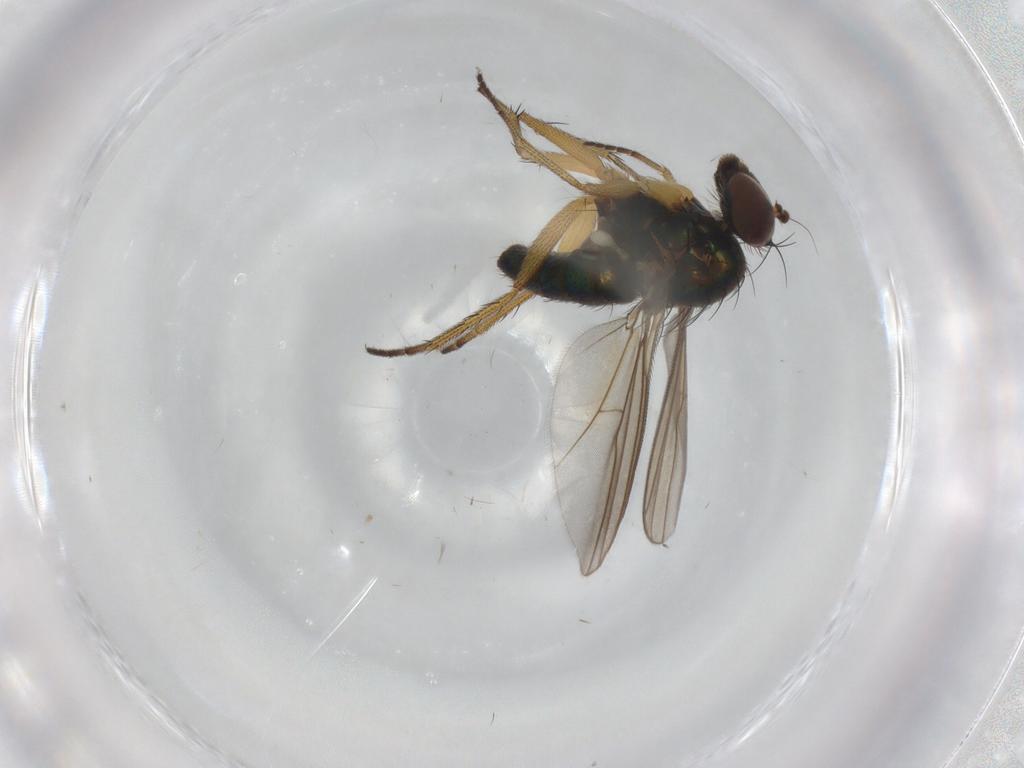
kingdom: Animalia
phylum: Arthropoda
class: Insecta
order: Diptera
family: Dolichopodidae
